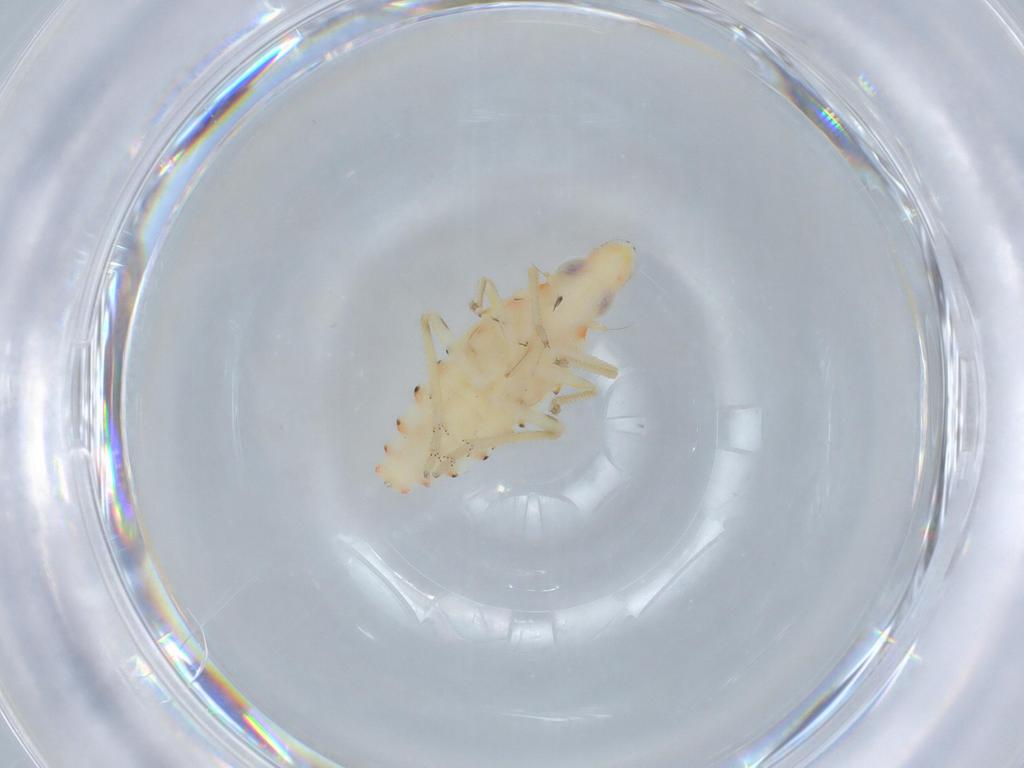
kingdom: Animalia
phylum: Arthropoda
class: Insecta
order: Hemiptera
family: Tropiduchidae
